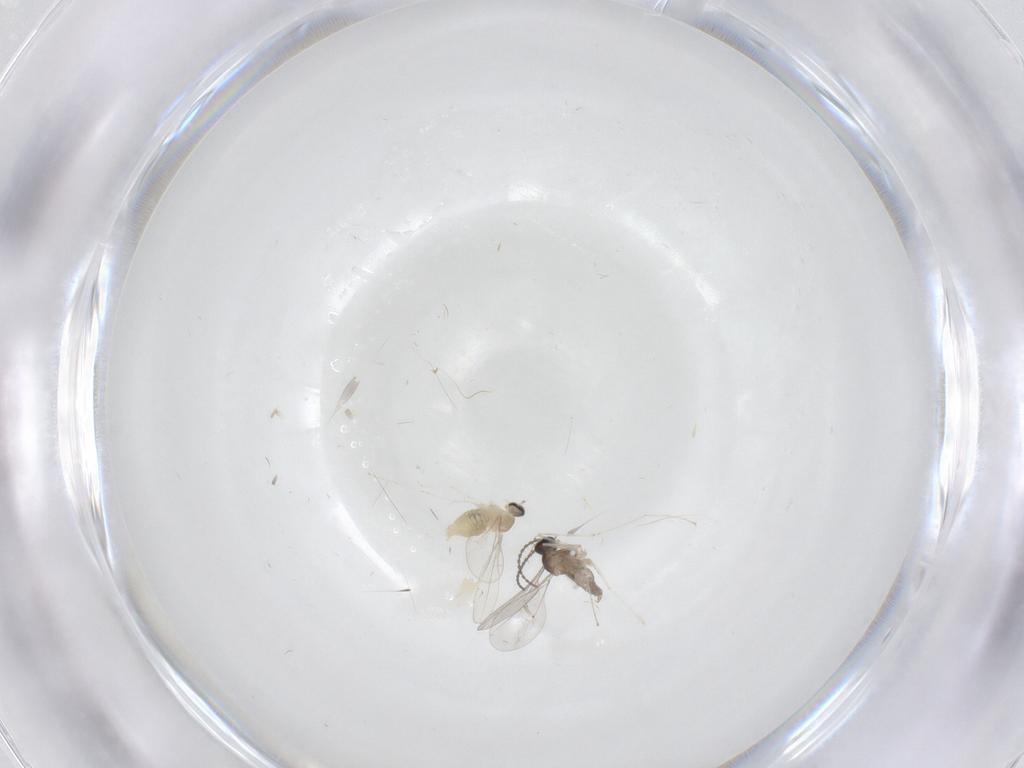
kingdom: Animalia
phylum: Arthropoda
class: Insecta
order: Diptera
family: Cecidomyiidae
